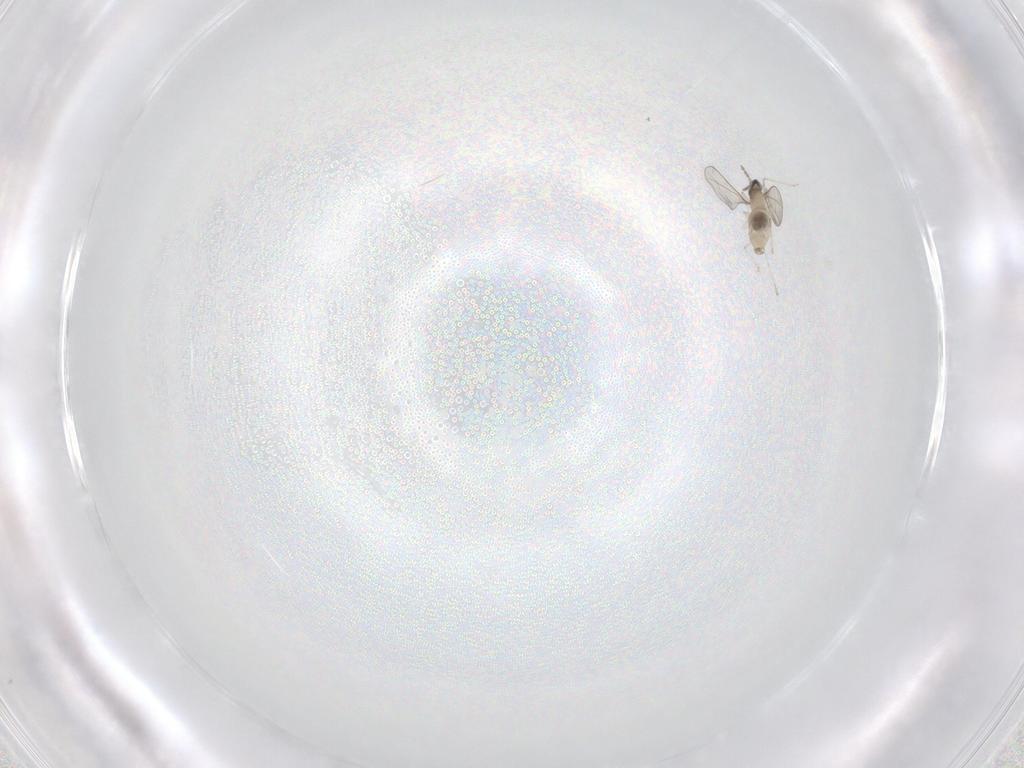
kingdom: Animalia
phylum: Arthropoda
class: Insecta
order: Diptera
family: Cecidomyiidae
